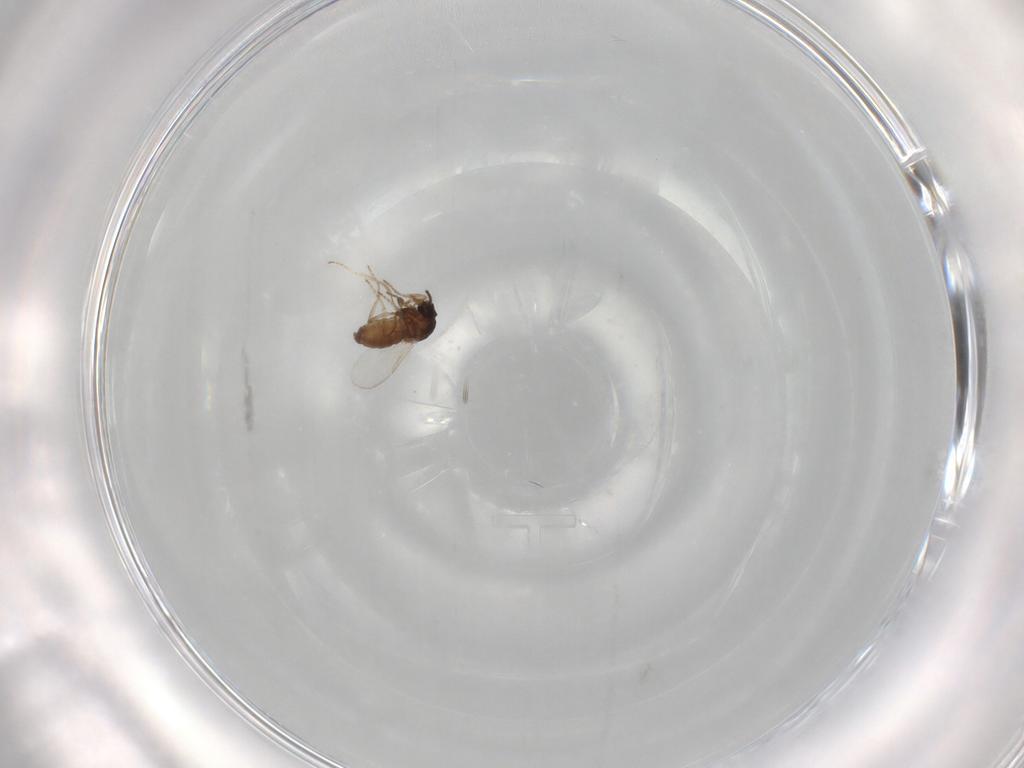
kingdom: Animalia
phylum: Arthropoda
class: Insecta
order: Diptera
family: Ceratopogonidae
